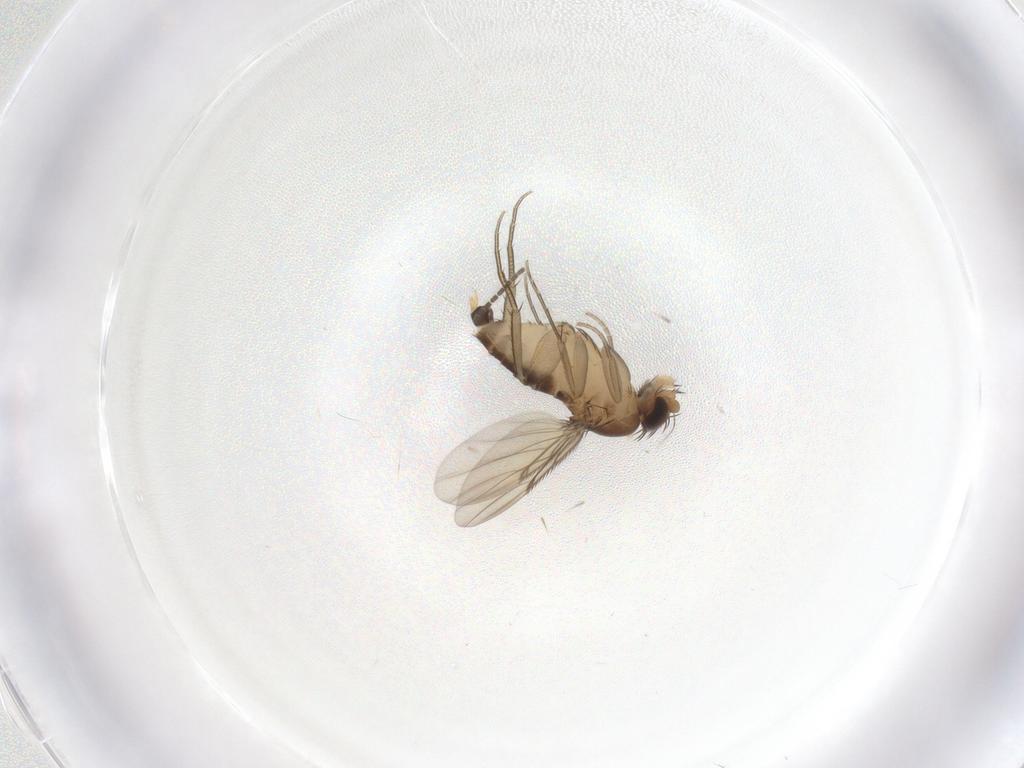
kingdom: Animalia
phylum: Arthropoda
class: Insecta
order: Diptera
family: Sciaridae
